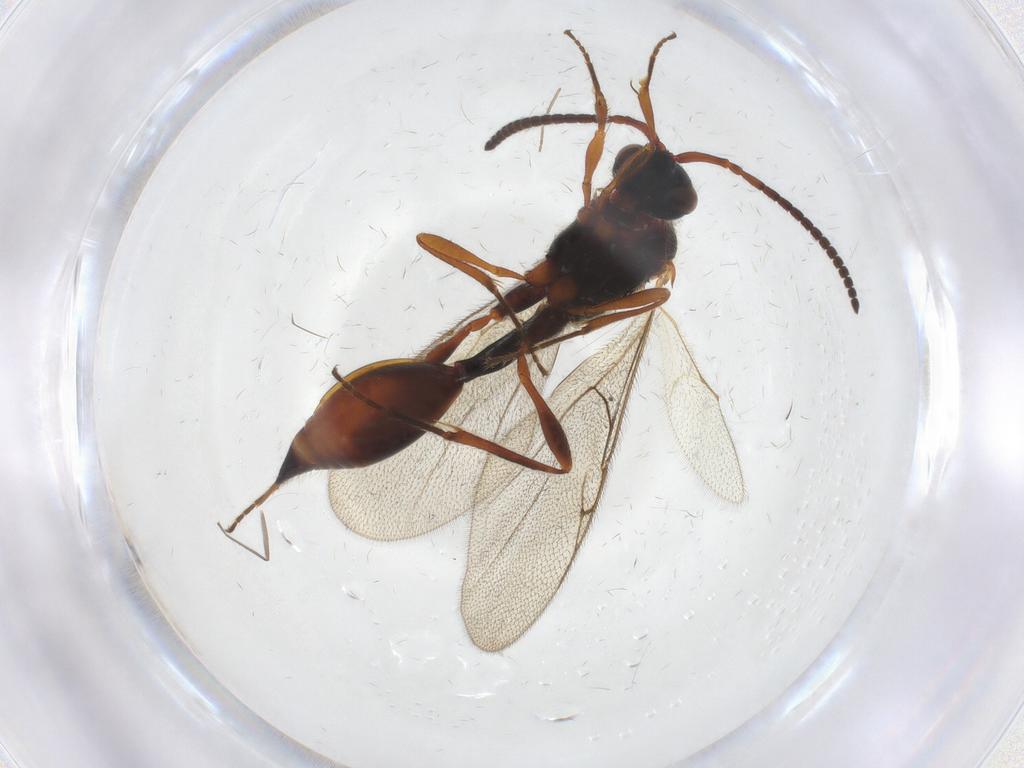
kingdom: Animalia
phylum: Arthropoda
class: Insecta
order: Hymenoptera
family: Diapriidae
